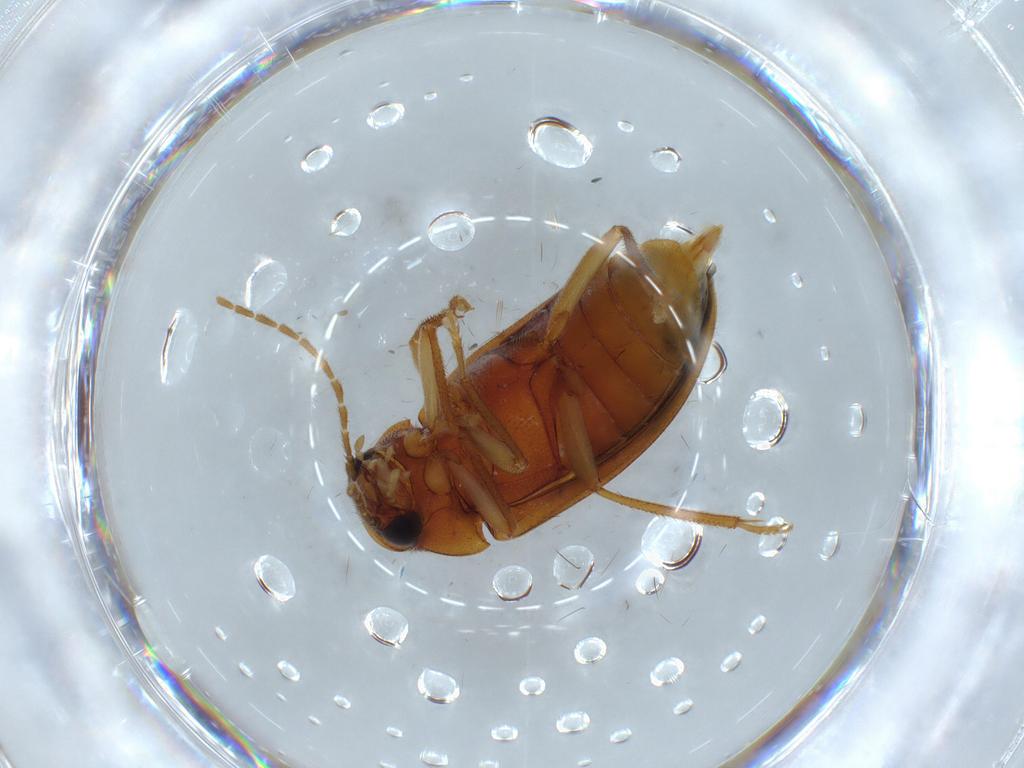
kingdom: Animalia
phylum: Arthropoda
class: Insecta
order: Coleoptera
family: Ptilodactylidae
